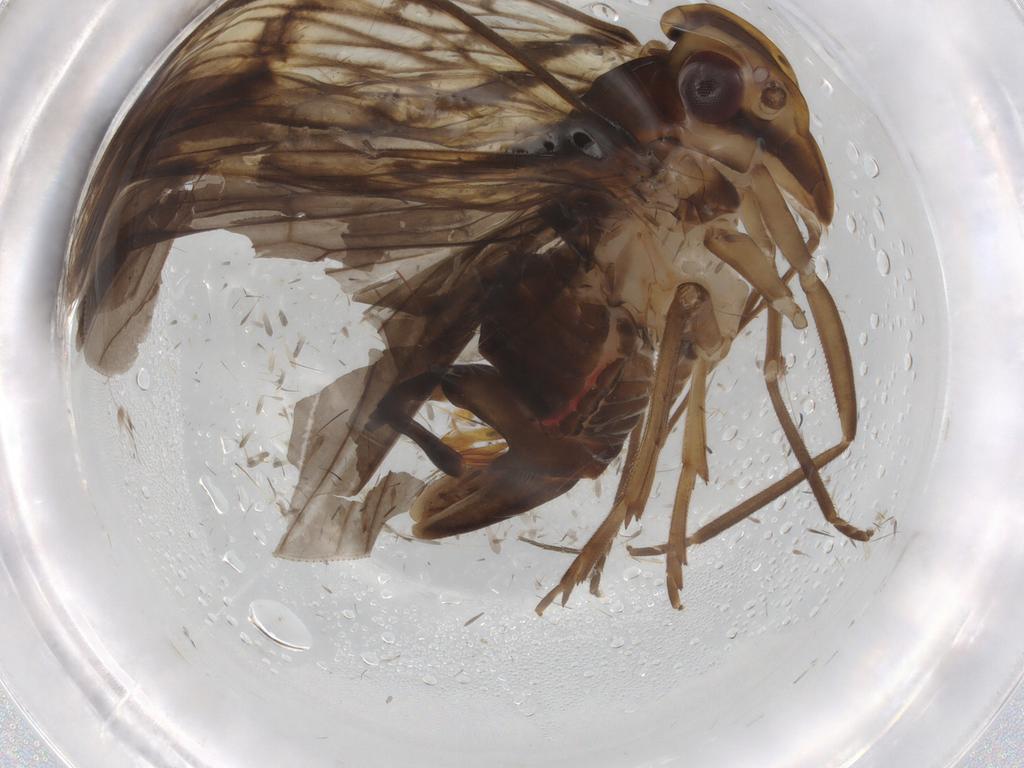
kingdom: Animalia
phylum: Arthropoda
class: Insecta
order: Hemiptera
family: Cixiidae
